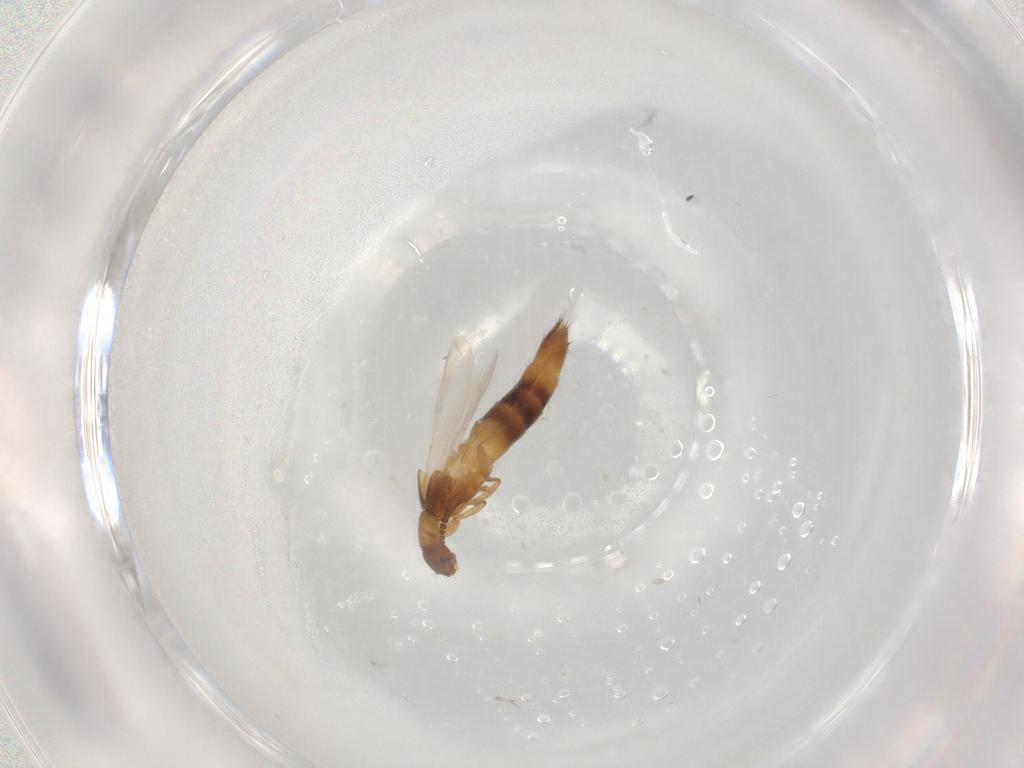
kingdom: Animalia
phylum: Arthropoda
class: Insecta
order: Coleoptera
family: Staphylinidae
